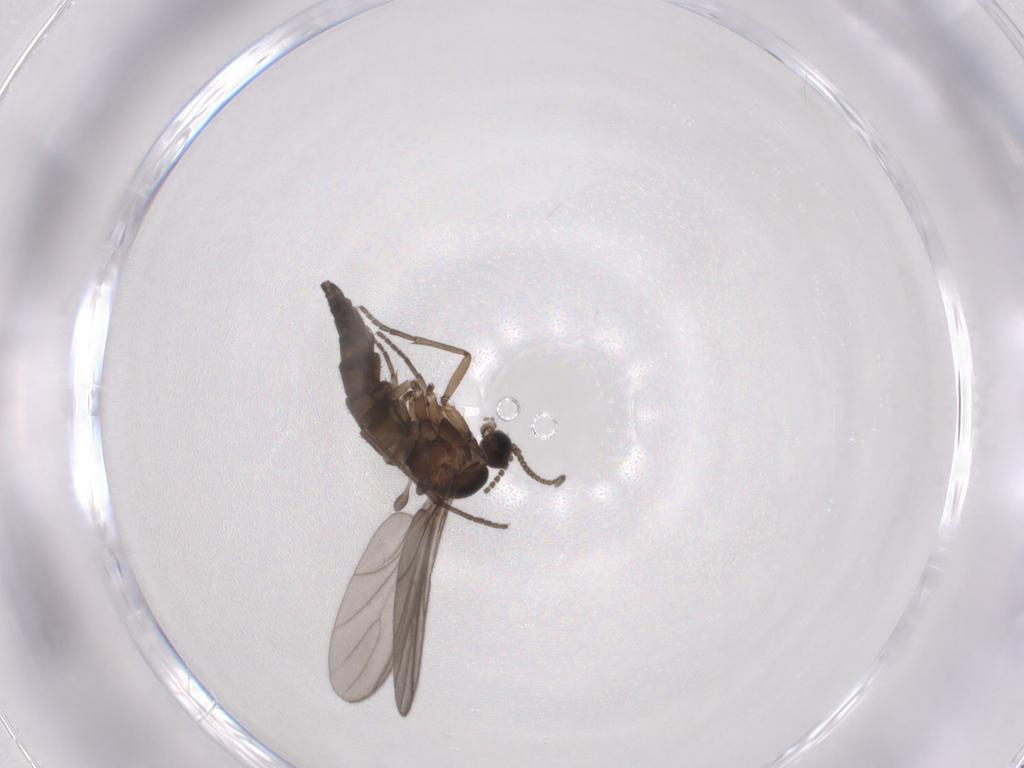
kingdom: Animalia
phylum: Arthropoda
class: Insecta
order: Diptera
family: Sciaridae
